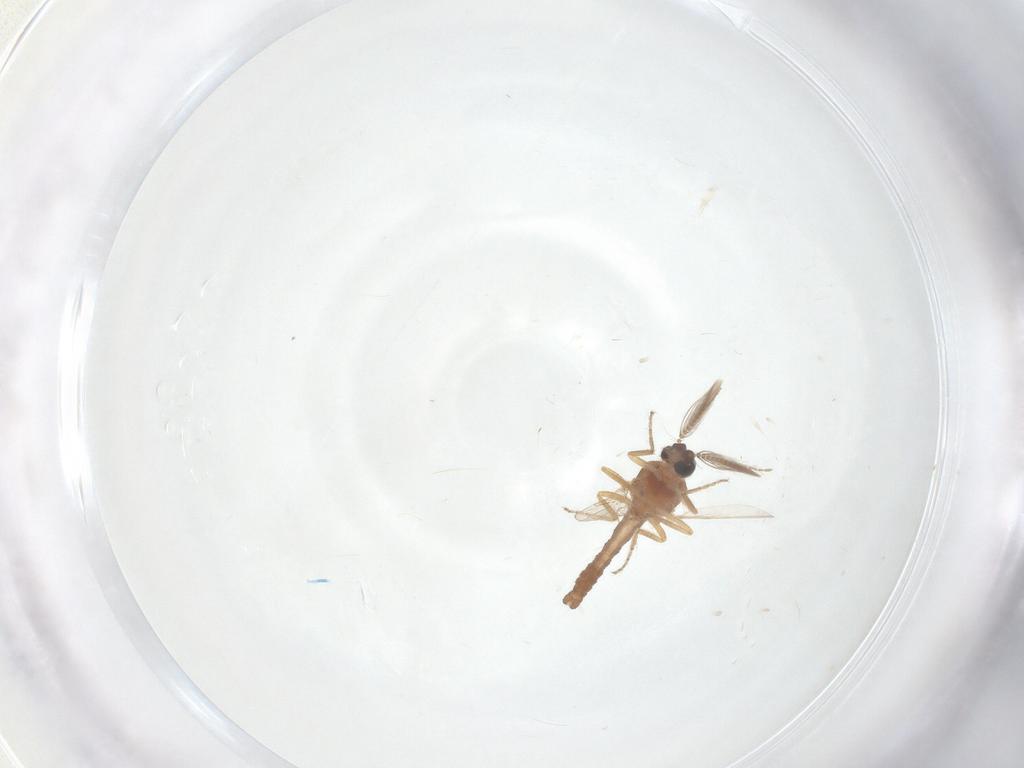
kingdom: Animalia
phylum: Arthropoda
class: Insecta
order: Diptera
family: Ceratopogonidae
